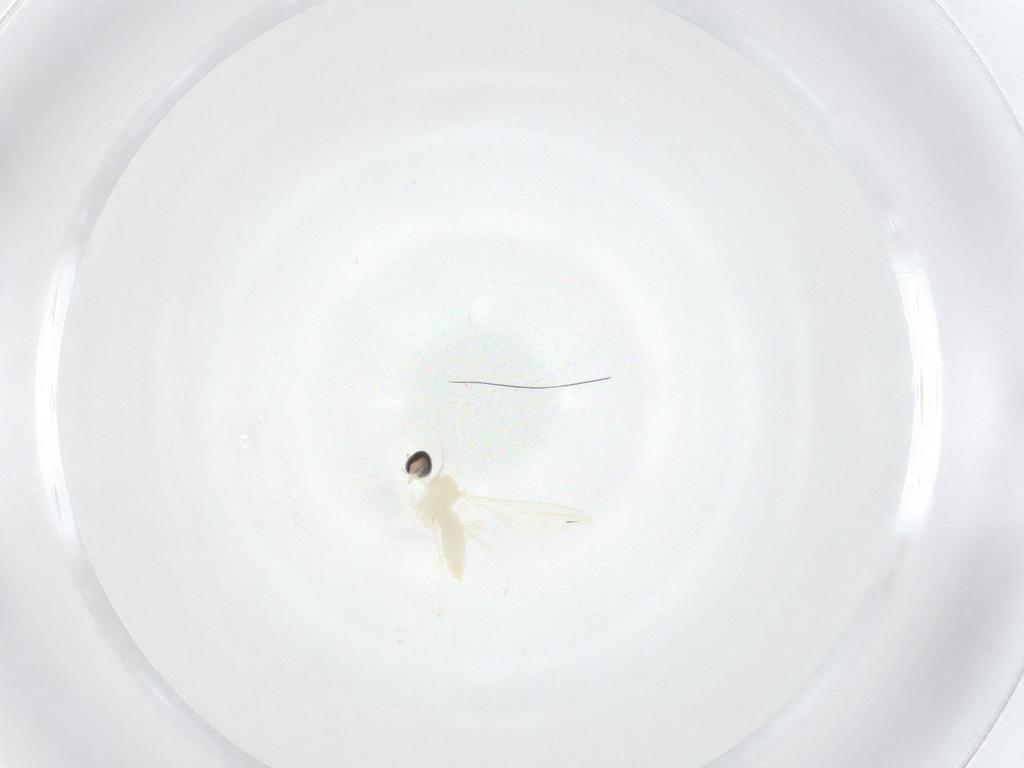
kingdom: Animalia
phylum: Arthropoda
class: Insecta
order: Diptera
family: Cecidomyiidae
